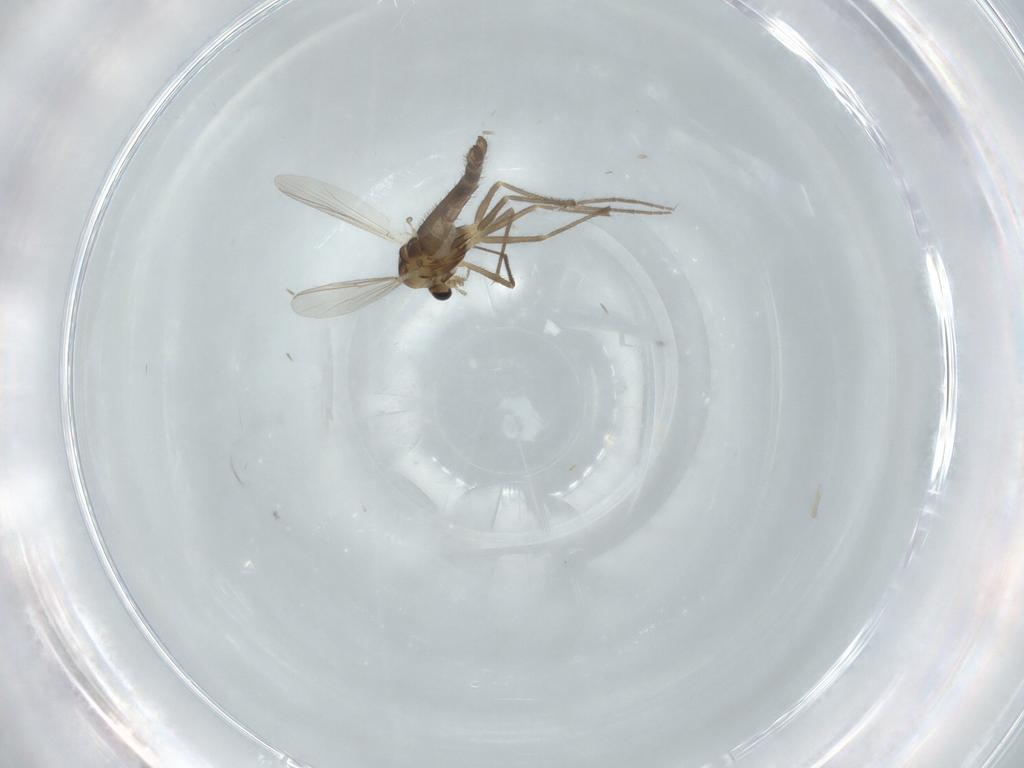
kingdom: Animalia
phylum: Arthropoda
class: Insecta
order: Diptera
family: Chironomidae
